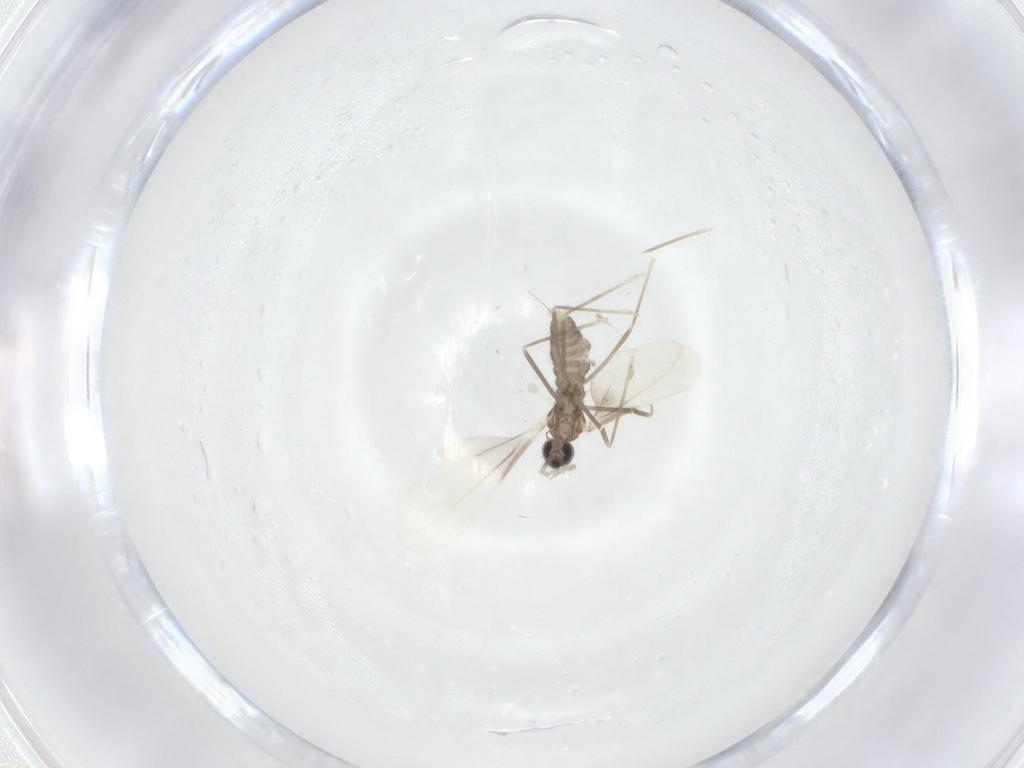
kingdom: Animalia
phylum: Arthropoda
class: Insecta
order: Diptera
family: Cecidomyiidae
